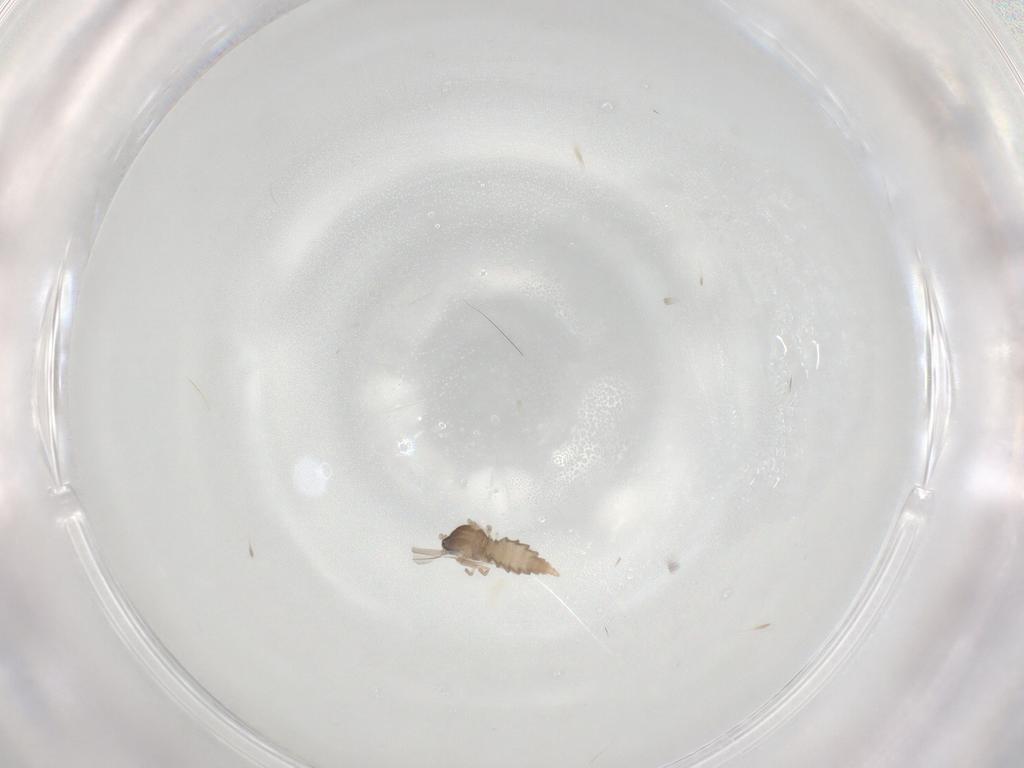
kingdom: Animalia
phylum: Arthropoda
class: Insecta
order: Diptera
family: Cecidomyiidae
